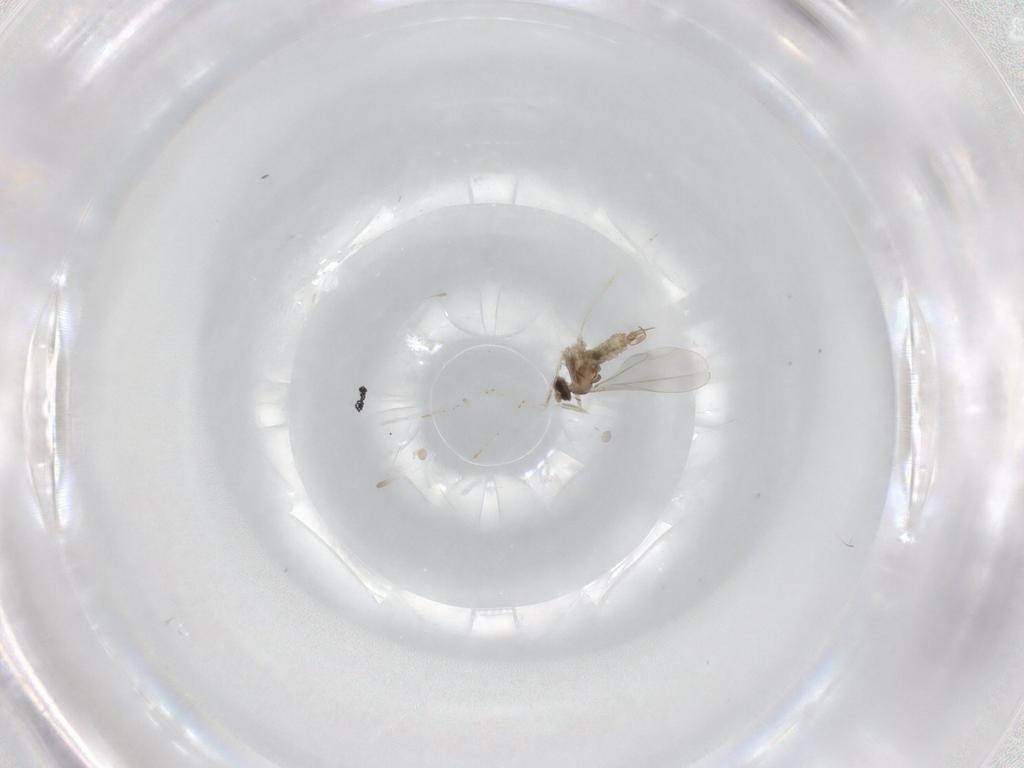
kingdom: Animalia
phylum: Arthropoda
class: Insecta
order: Diptera
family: Cecidomyiidae
